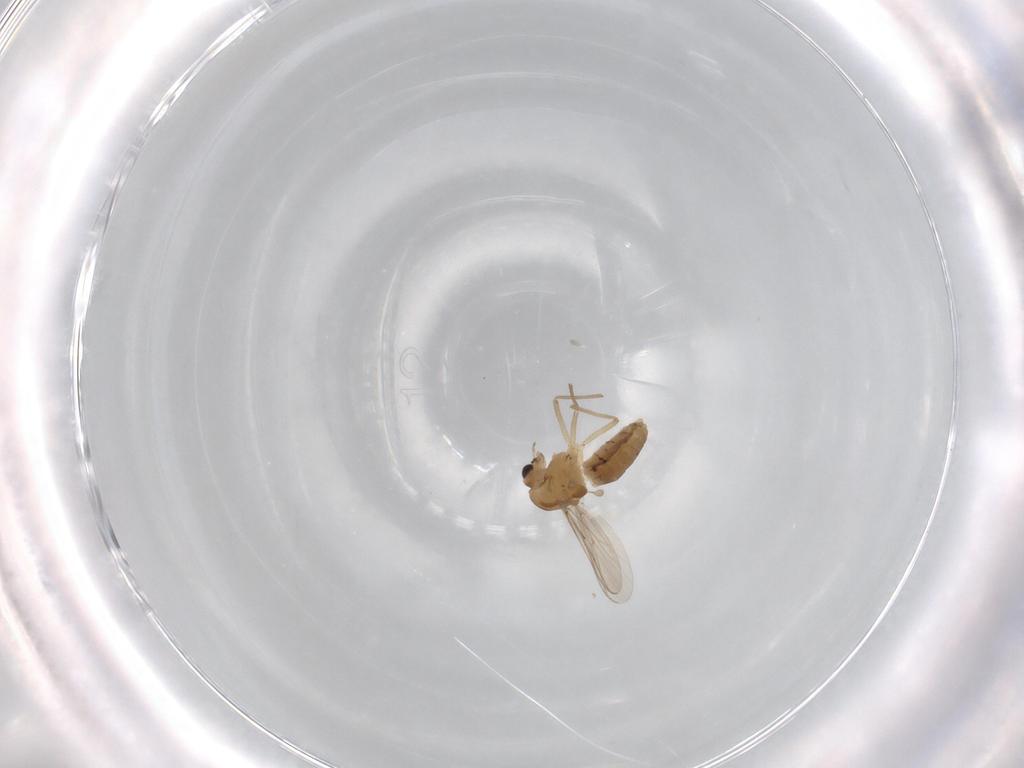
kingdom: Animalia
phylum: Arthropoda
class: Insecta
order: Diptera
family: Chironomidae
